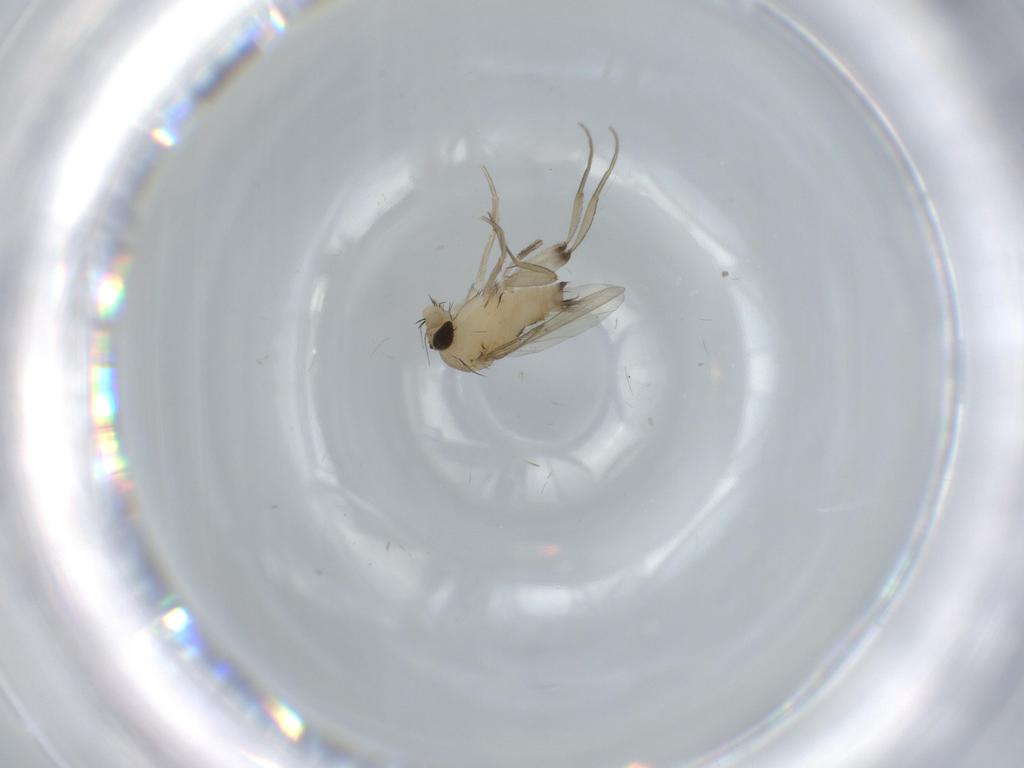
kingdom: Animalia
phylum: Arthropoda
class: Insecta
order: Diptera
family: Phoridae
